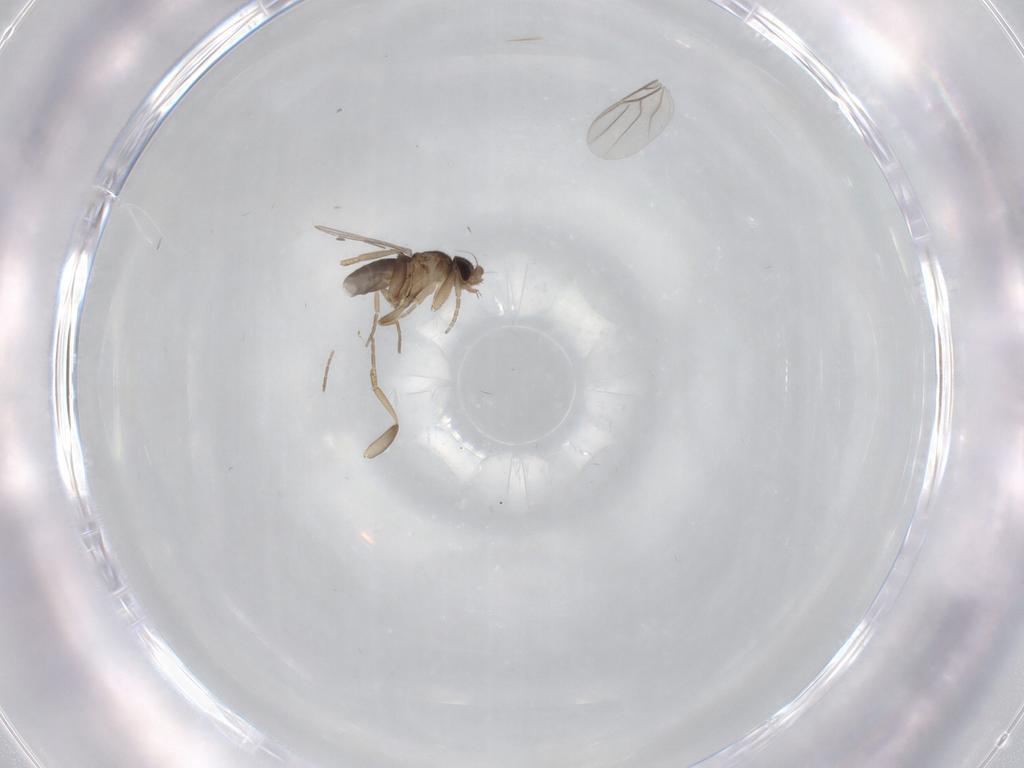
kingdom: Animalia
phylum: Arthropoda
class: Insecta
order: Diptera
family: Phoridae
